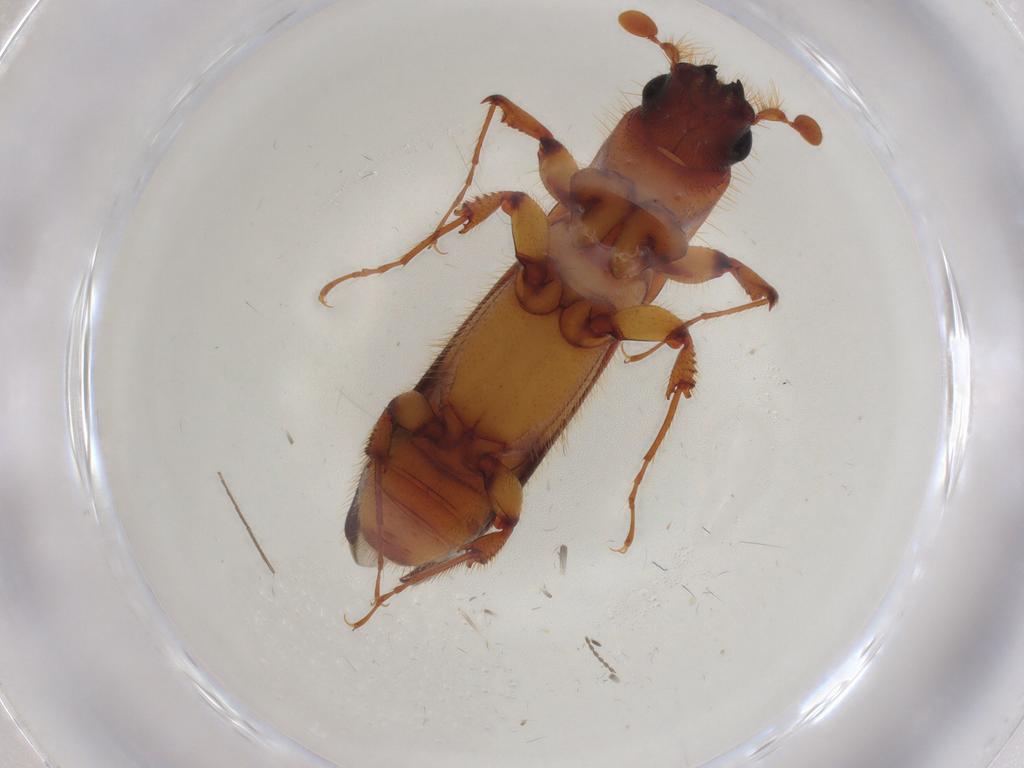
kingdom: Animalia
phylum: Arthropoda
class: Insecta
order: Coleoptera
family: Curculionidae
